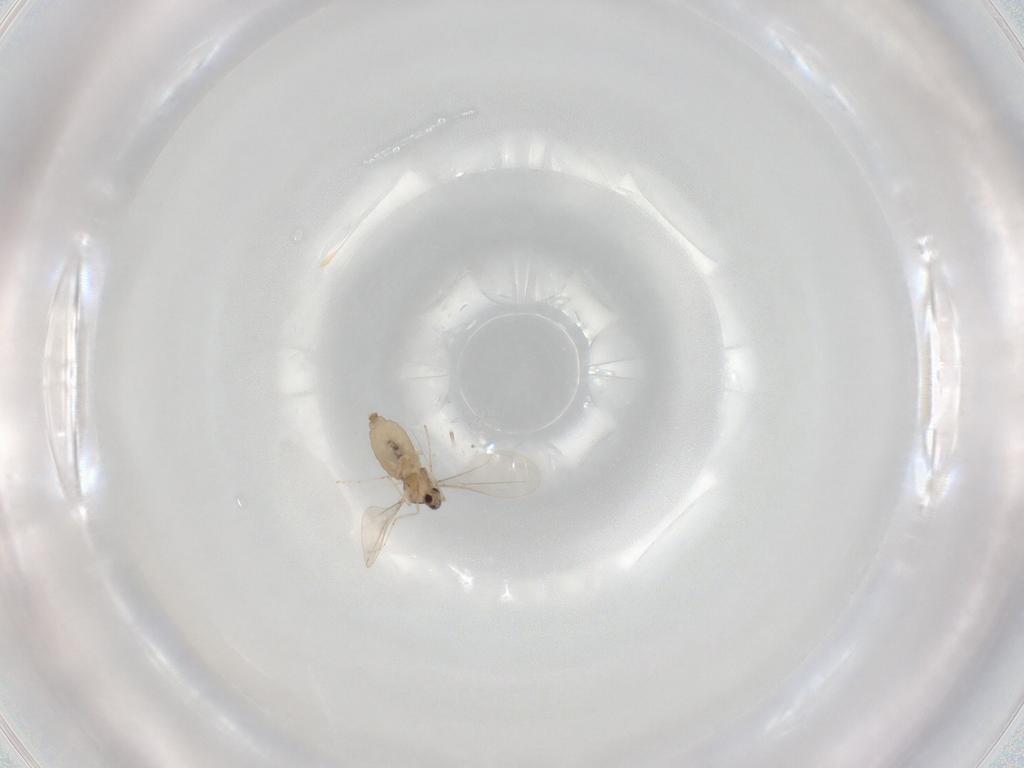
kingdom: Animalia
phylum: Arthropoda
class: Insecta
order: Diptera
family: Cecidomyiidae
